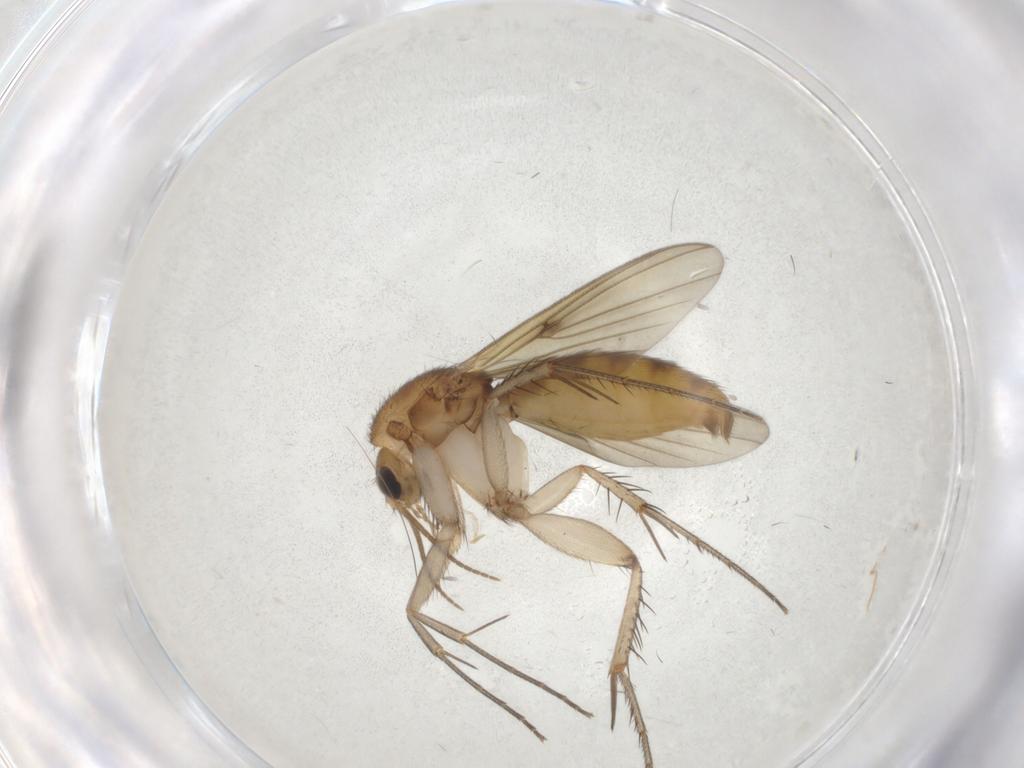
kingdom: Animalia
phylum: Arthropoda
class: Insecta
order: Diptera
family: Mycetophilidae
